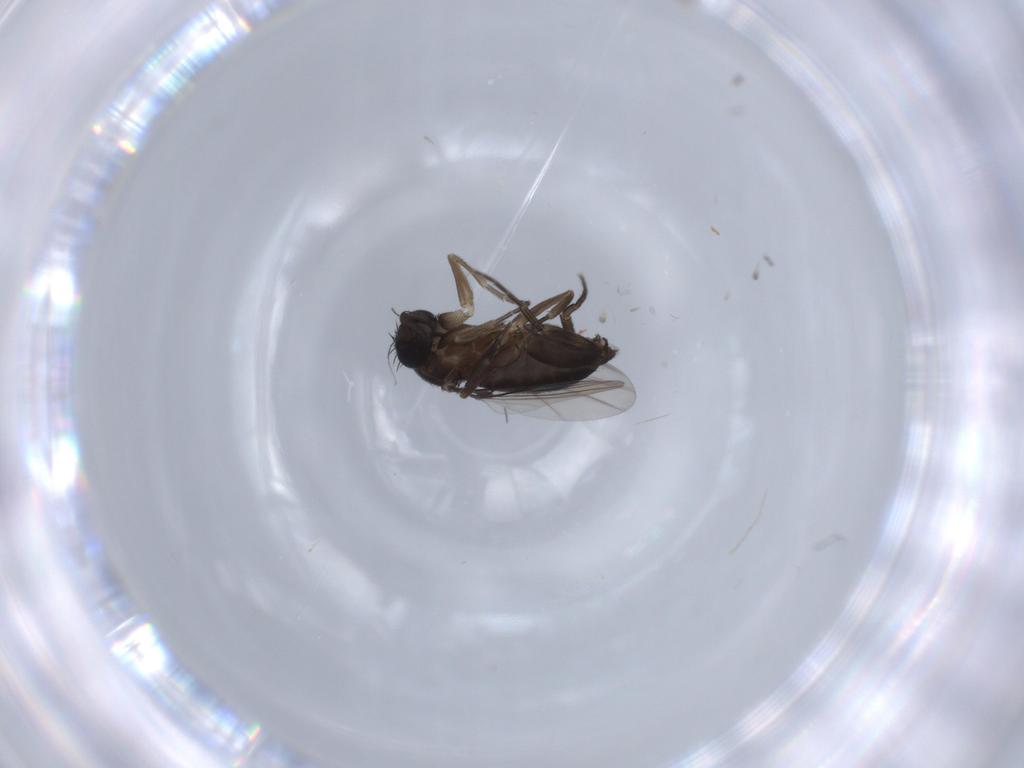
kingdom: Animalia
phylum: Arthropoda
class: Insecta
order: Diptera
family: Phoridae
